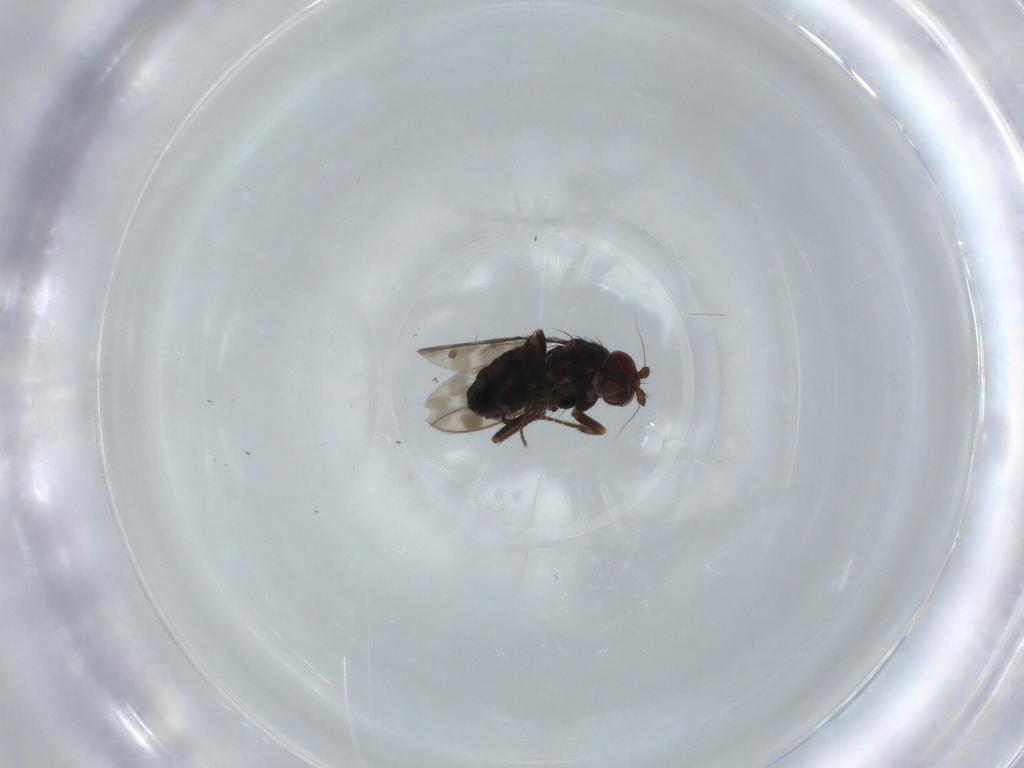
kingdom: Animalia
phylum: Arthropoda
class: Insecta
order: Diptera
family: Sphaeroceridae
